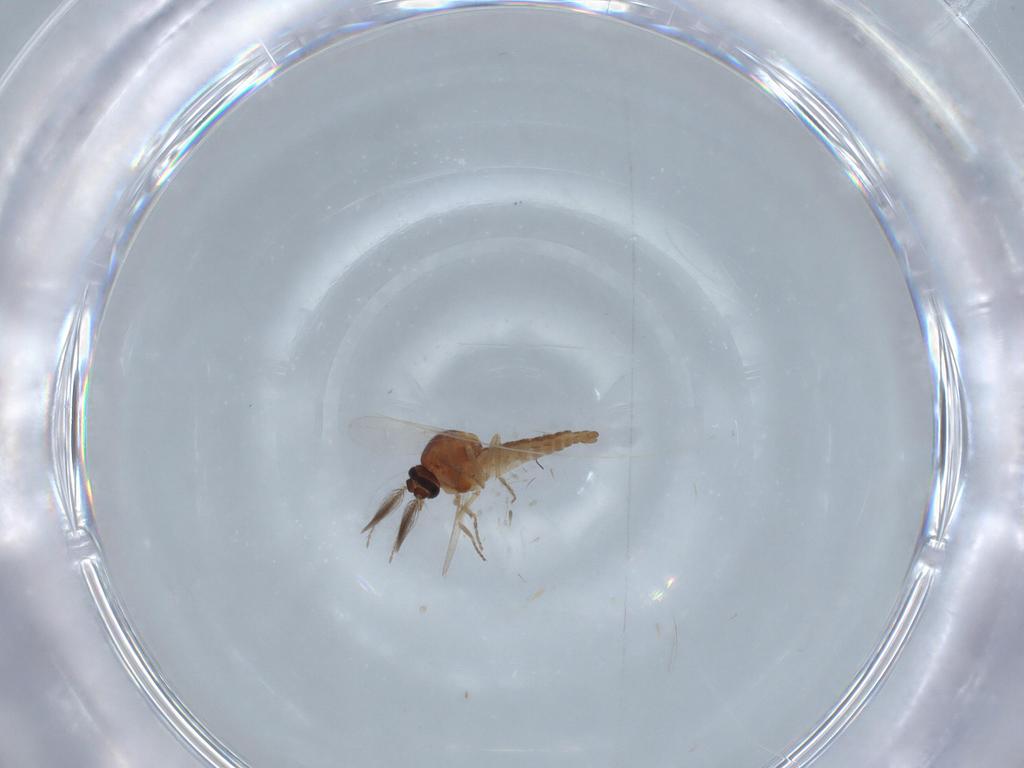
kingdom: Animalia
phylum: Arthropoda
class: Insecta
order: Diptera
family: Ceratopogonidae
